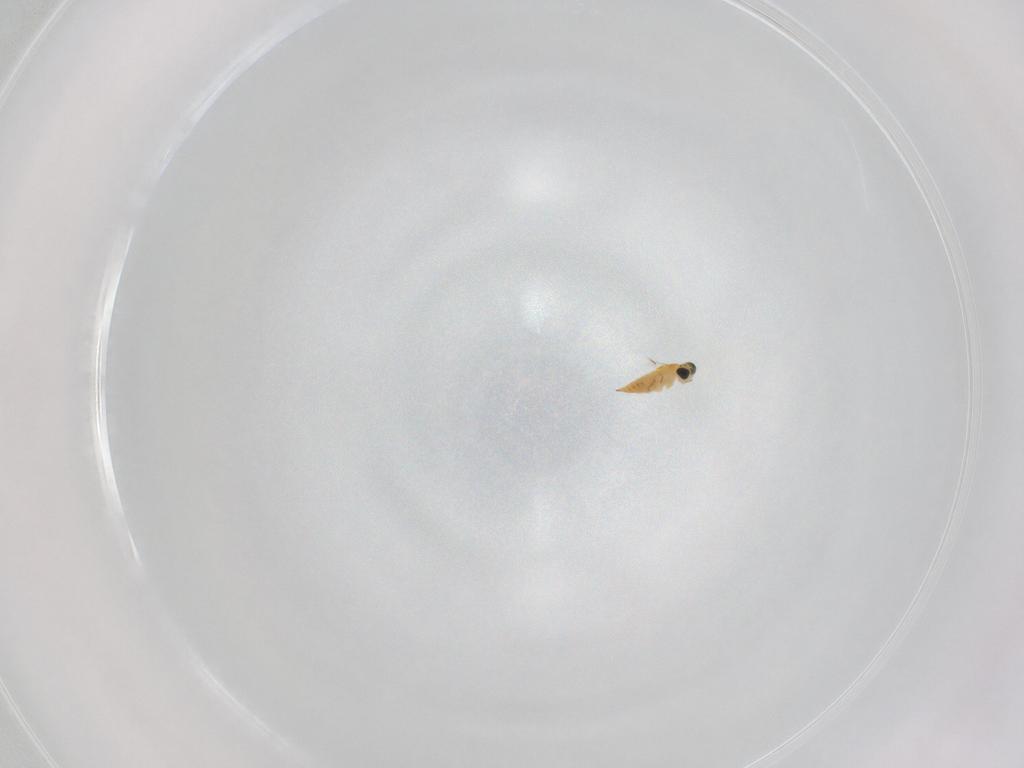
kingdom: Animalia
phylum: Arthropoda
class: Insecta
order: Hymenoptera
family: Trichogrammatidae
